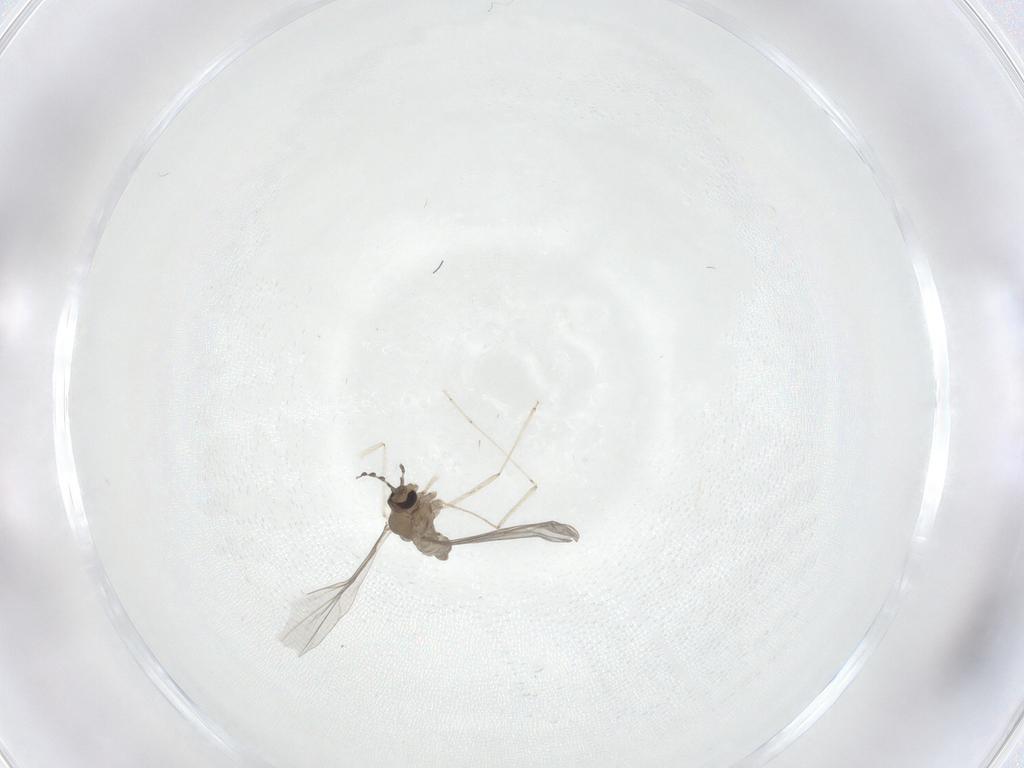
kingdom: Animalia
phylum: Arthropoda
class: Insecta
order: Diptera
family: Cecidomyiidae
